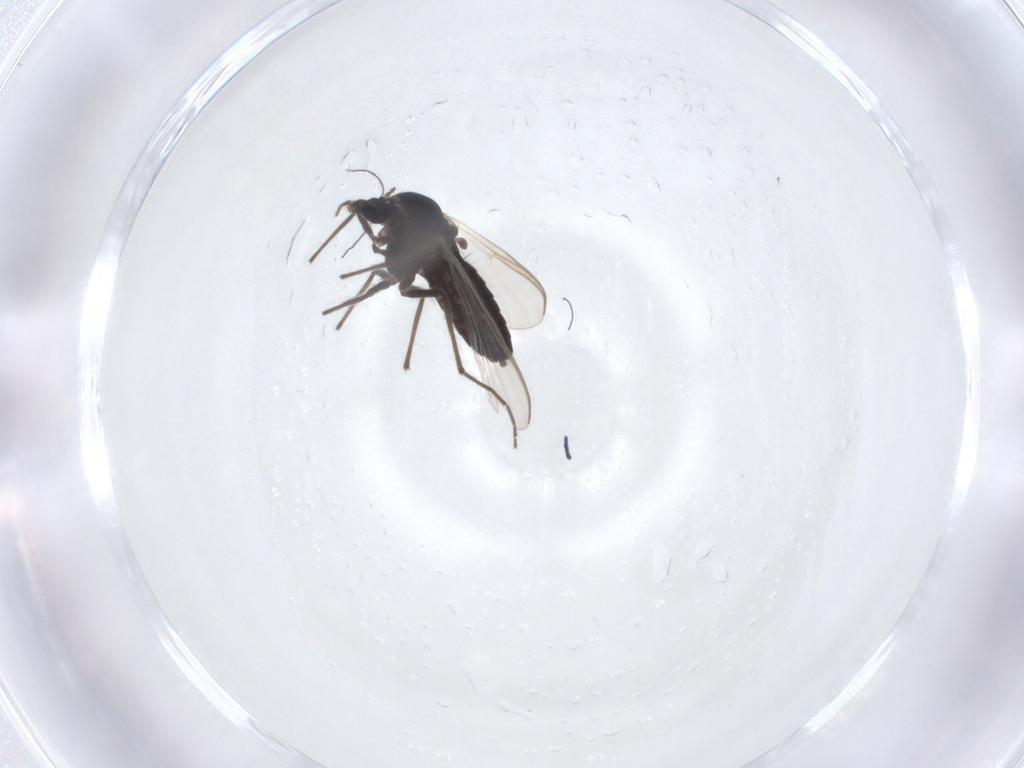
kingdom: Animalia
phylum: Arthropoda
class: Insecta
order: Diptera
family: Chironomidae
